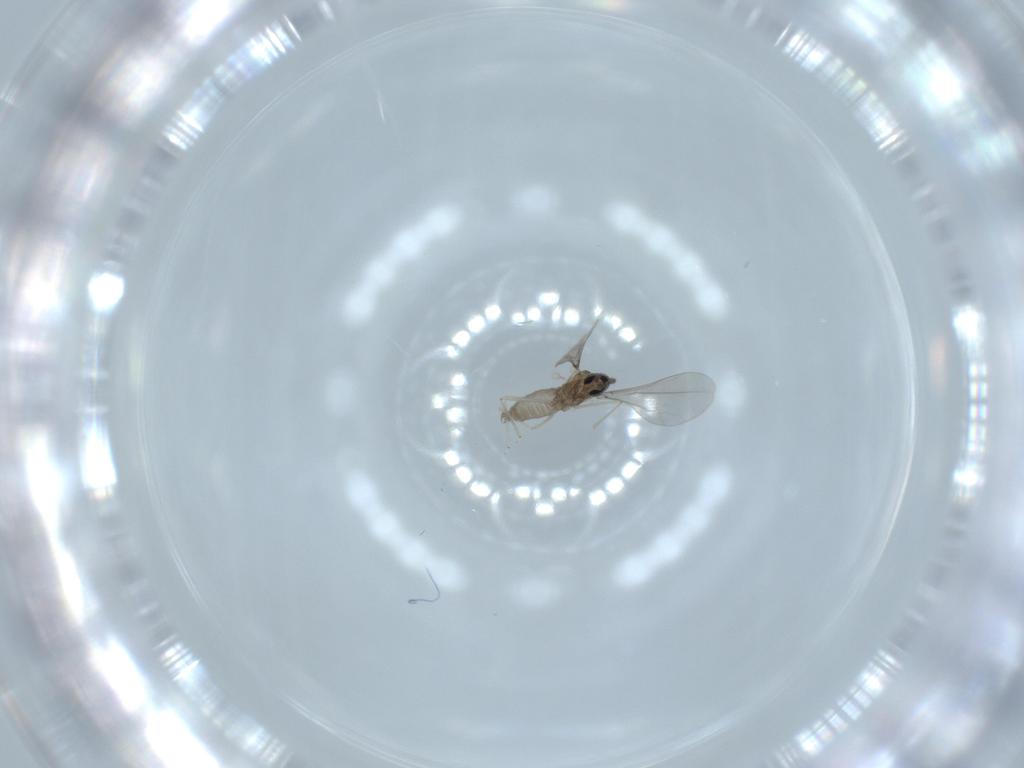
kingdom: Animalia
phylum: Arthropoda
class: Insecta
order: Diptera
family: Cecidomyiidae
